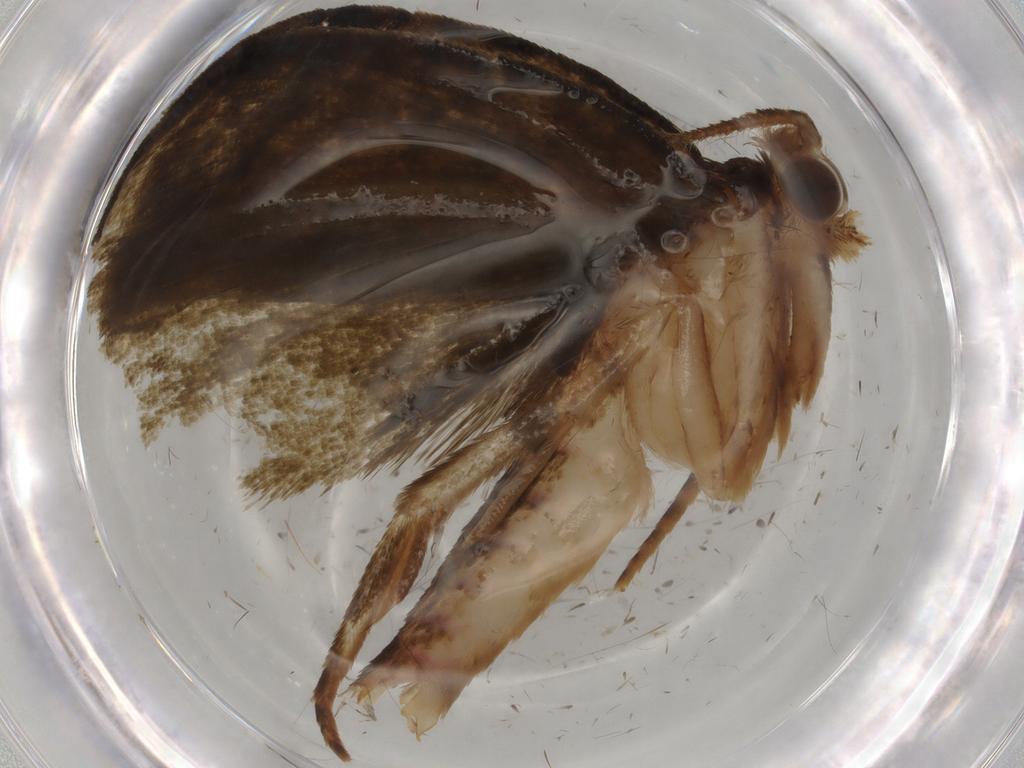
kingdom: Animalia
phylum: Arthropoda
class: Insecta
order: Lepidoptera
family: Geometridae
